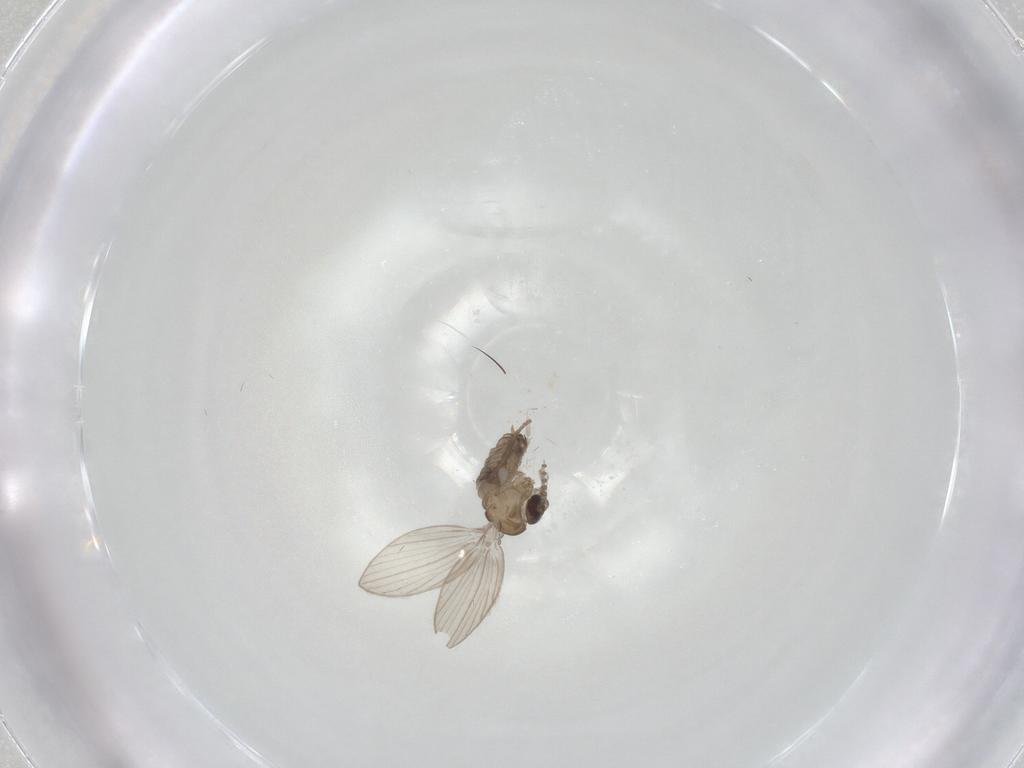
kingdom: Animalia
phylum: Arthropoda
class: Insecta
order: Diptera
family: Psychodidae
